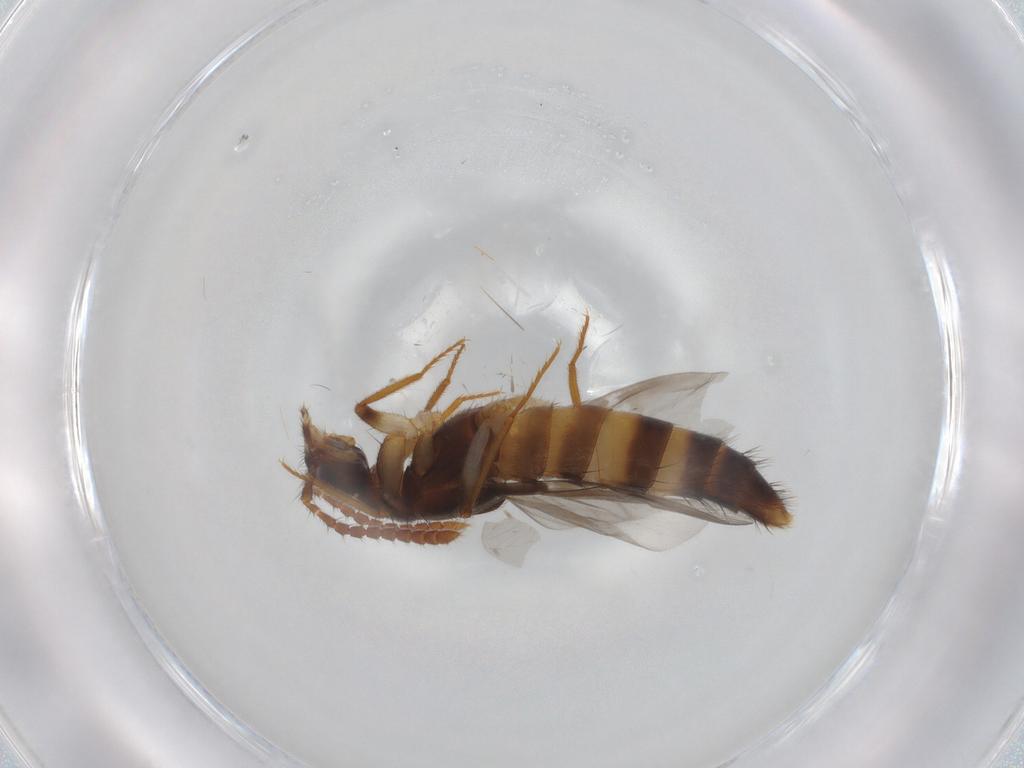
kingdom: Animalia
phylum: Arthropoda
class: Insecta
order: Coleoptera
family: Staphylinidae
